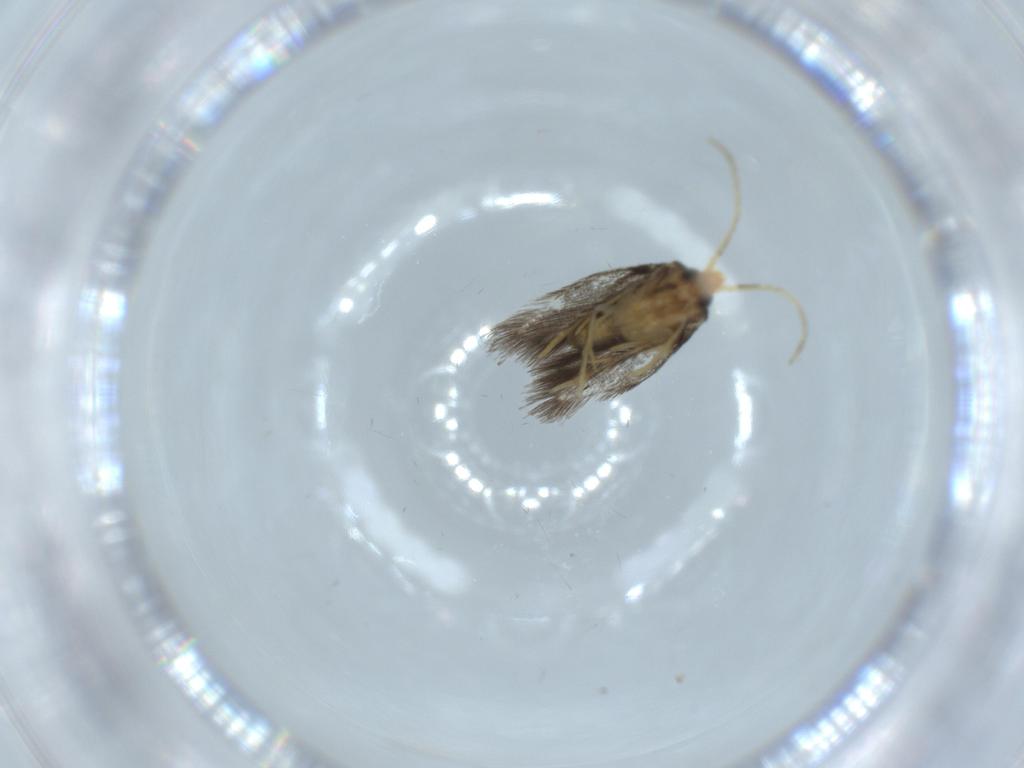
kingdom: Animalia
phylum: Arthropoda
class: Insecta
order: Lepidoptera
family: Nepticulidae
